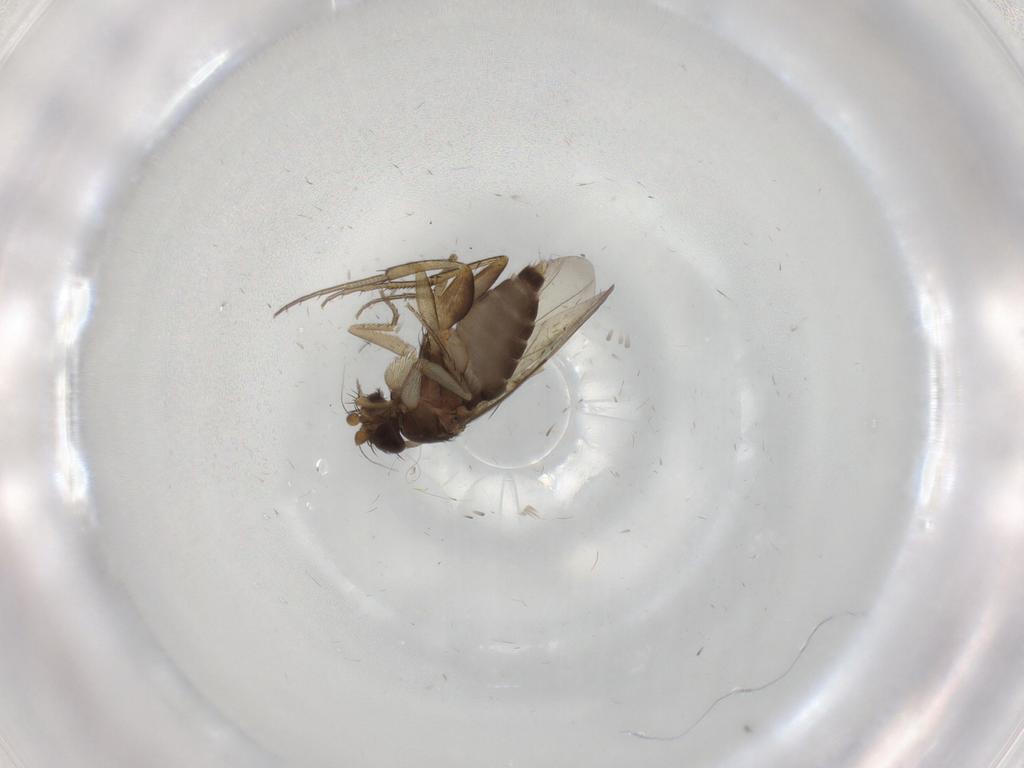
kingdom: Animalia
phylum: Arthropoda
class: Insecta
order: Diptera
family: Phoridae
